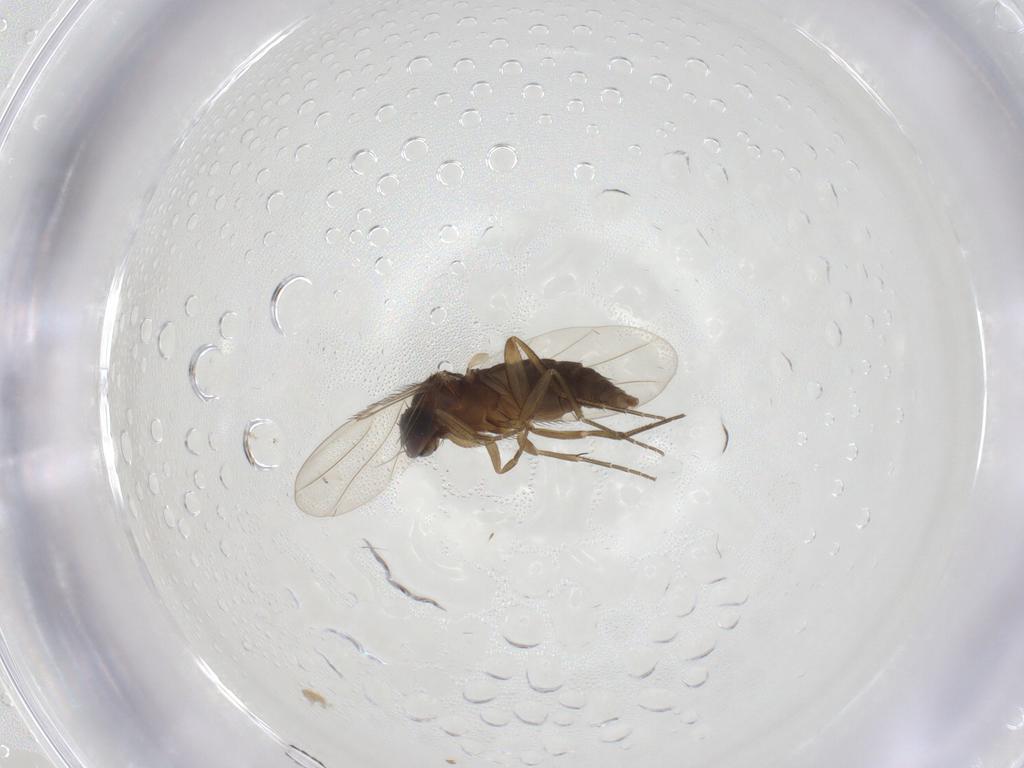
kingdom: Animalia
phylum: Arthropoda
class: Insecta
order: Diptera
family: Phoridae
